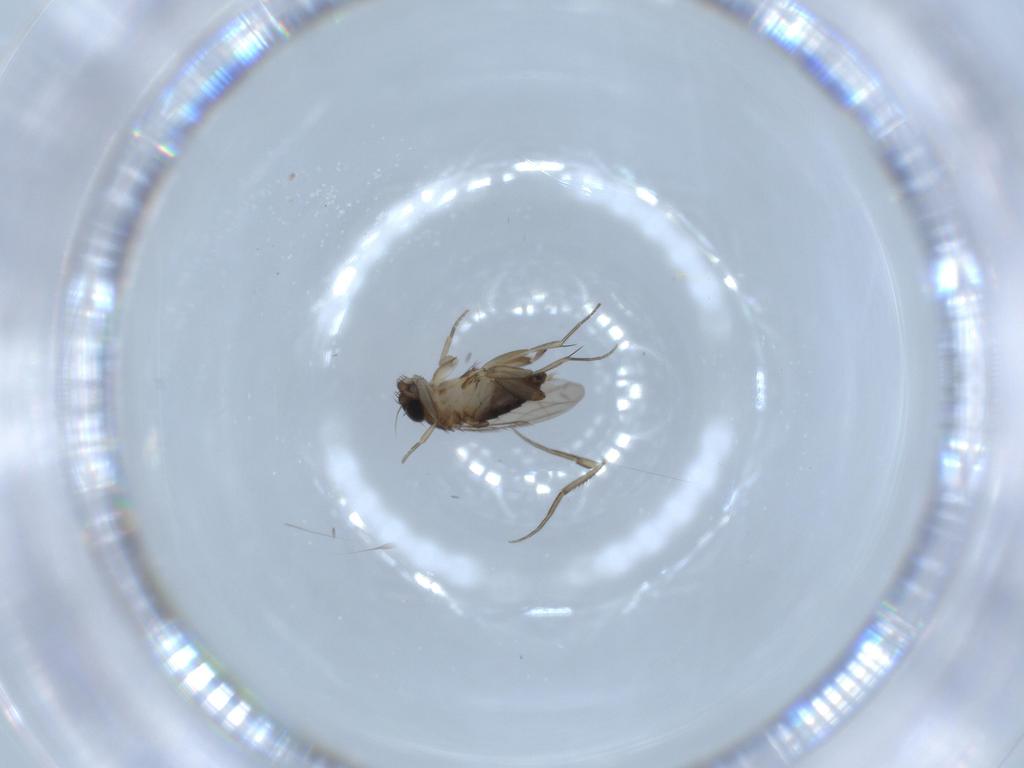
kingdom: Animalia
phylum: Arthropoda
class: Insecta
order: Diptera
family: Phoridae
